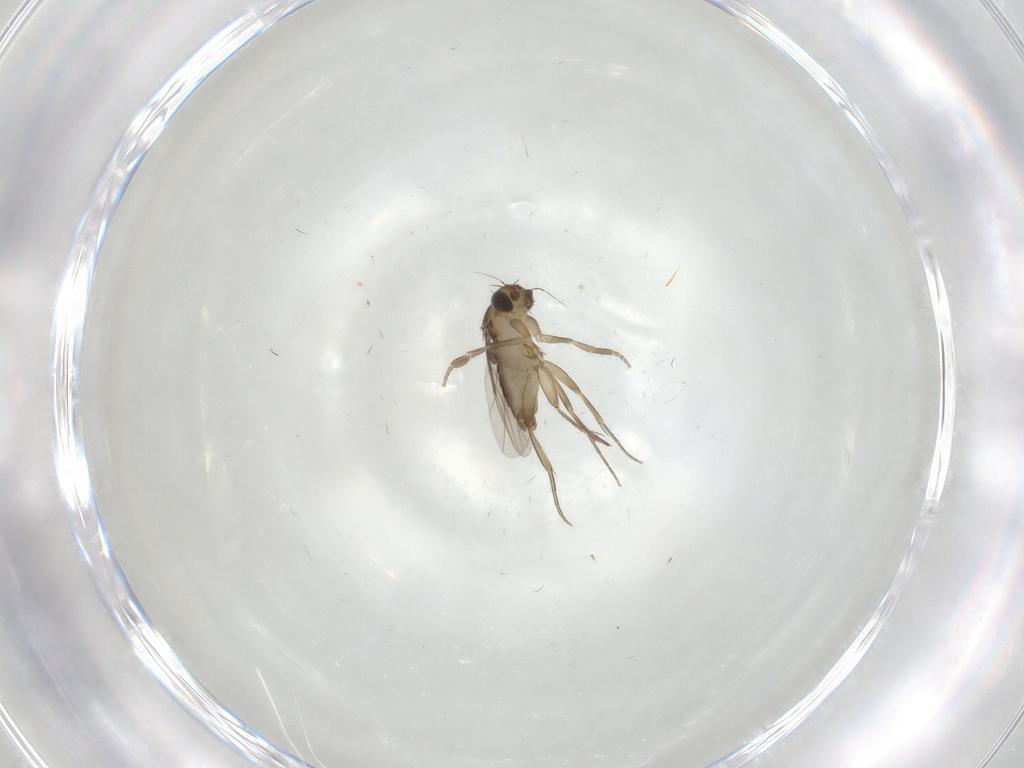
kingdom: Animalia
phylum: Arthropoda
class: Insecta
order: Diptera
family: Phoridae
